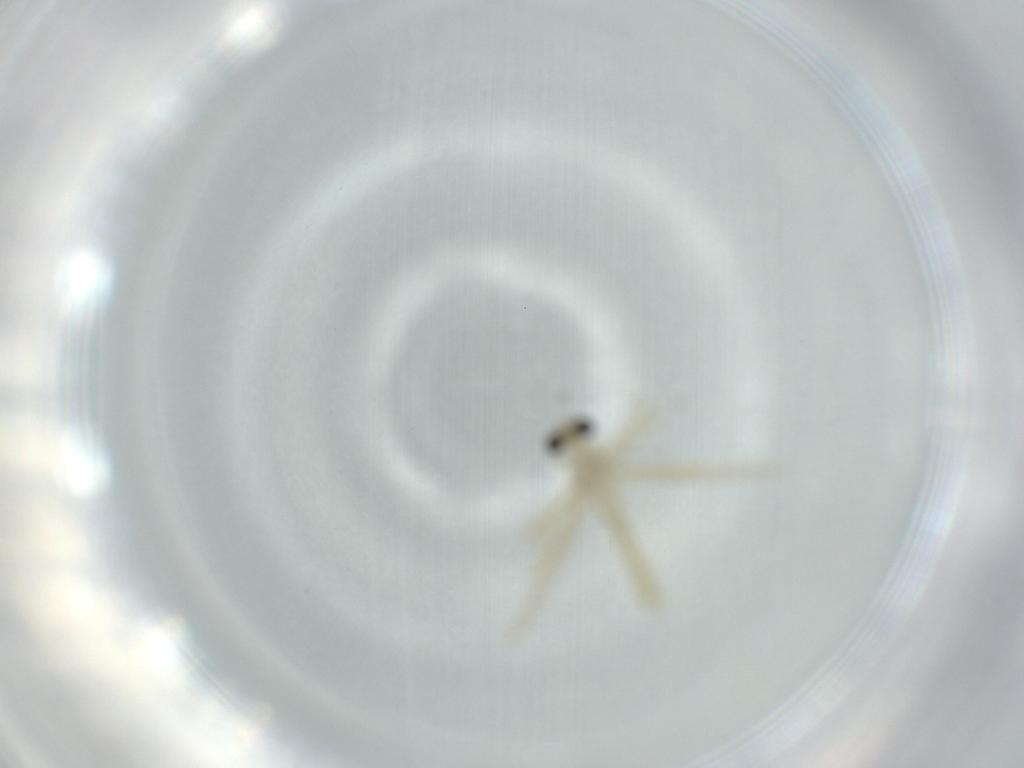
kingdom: Animalia
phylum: Arthropoda
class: Insecta
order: Diptera
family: Chironomidae
